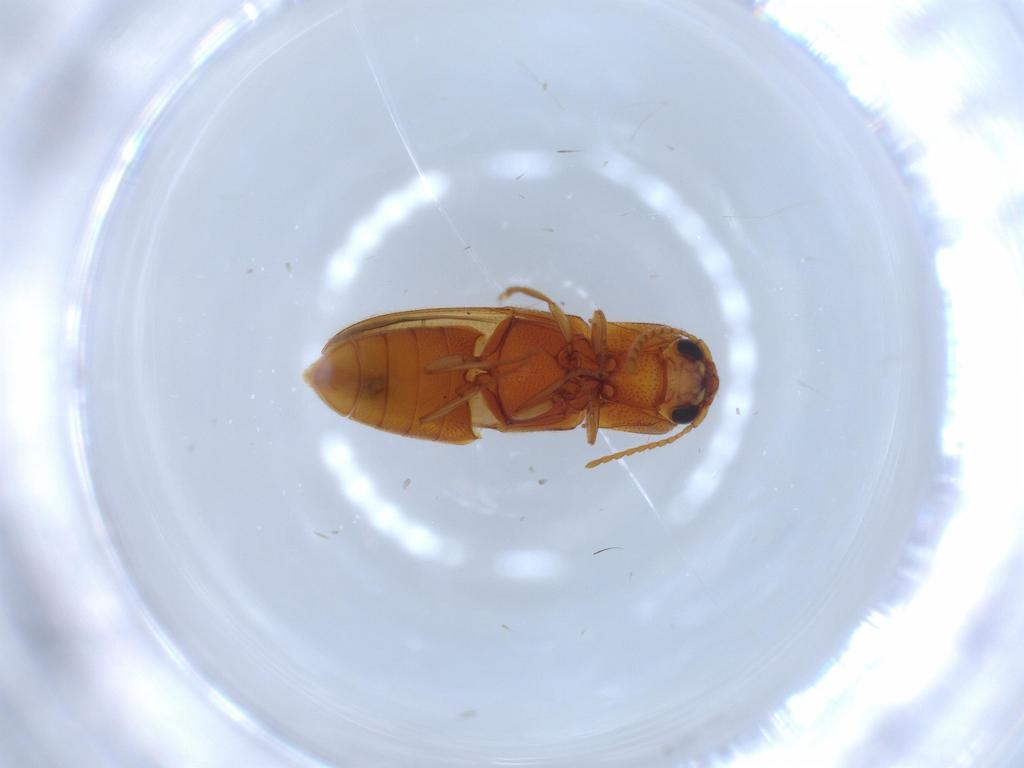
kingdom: Animalia
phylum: Arthropoda
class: Insecta
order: Coleoptera
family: Elateridae
